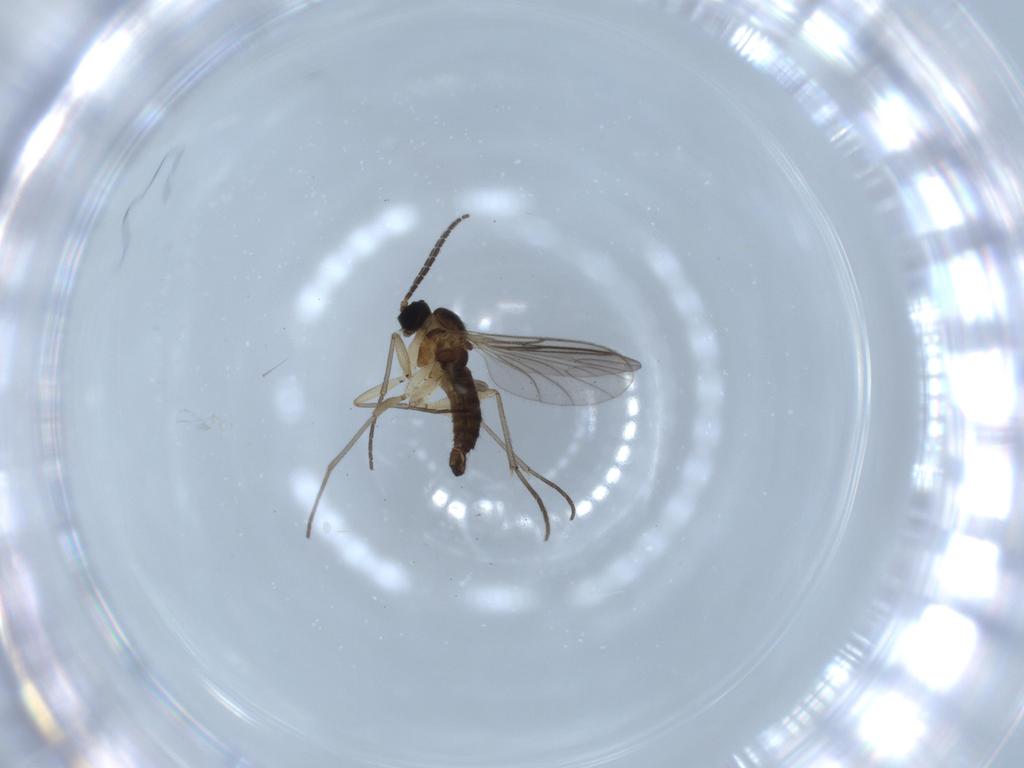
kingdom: Animalia
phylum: Arthropoda
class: Insecta
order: Diptera
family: Sciaridae
